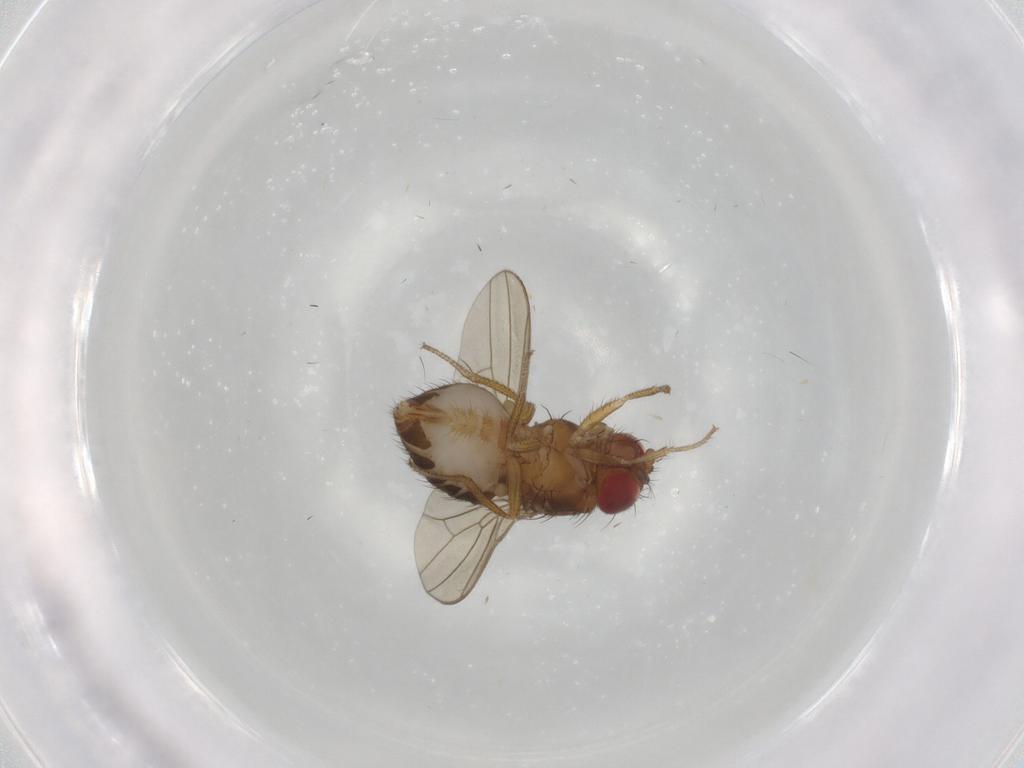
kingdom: Animalia
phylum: Arthropoda
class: Insecta
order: Diptera
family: Drosophilidae
